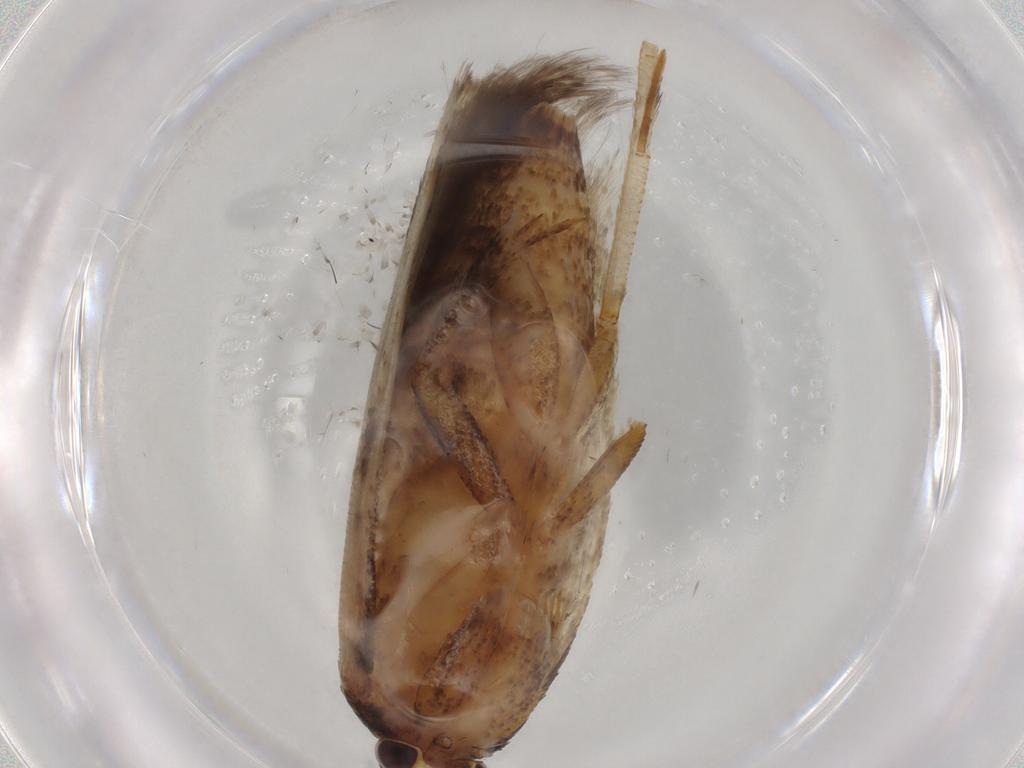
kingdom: Animalia
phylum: Arthropoda
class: Insecta
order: Lepidoptera
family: Gelechiidae
